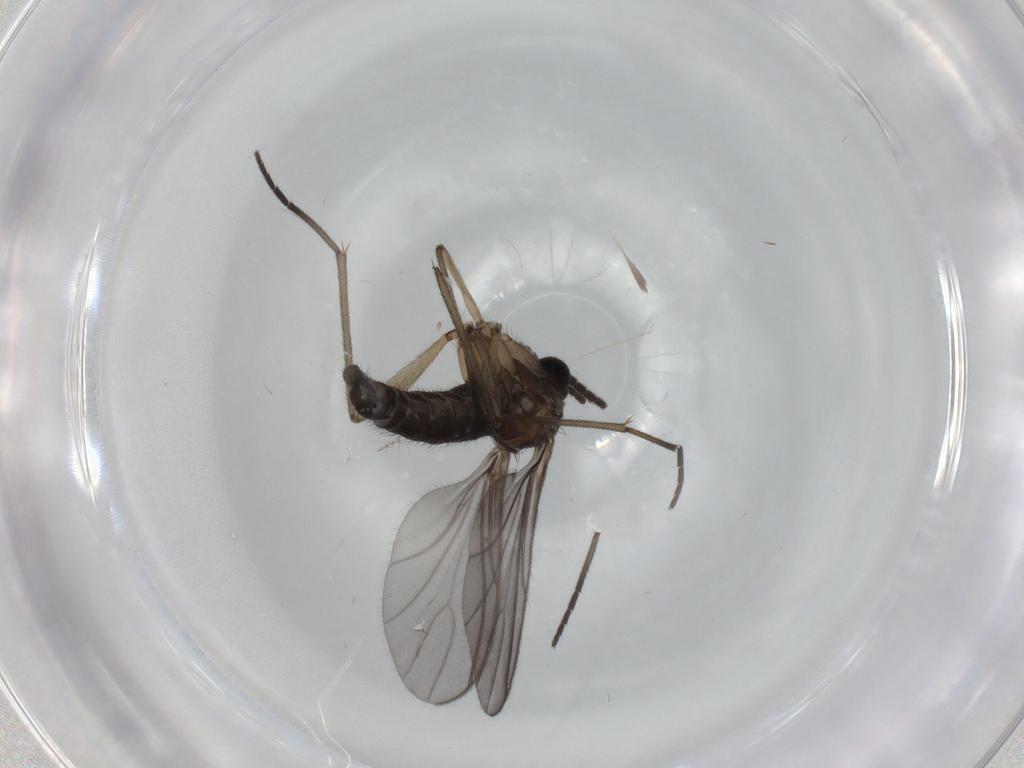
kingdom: Animalia
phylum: Arthropoda
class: Insecta
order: Diptera
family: Sciaridae
